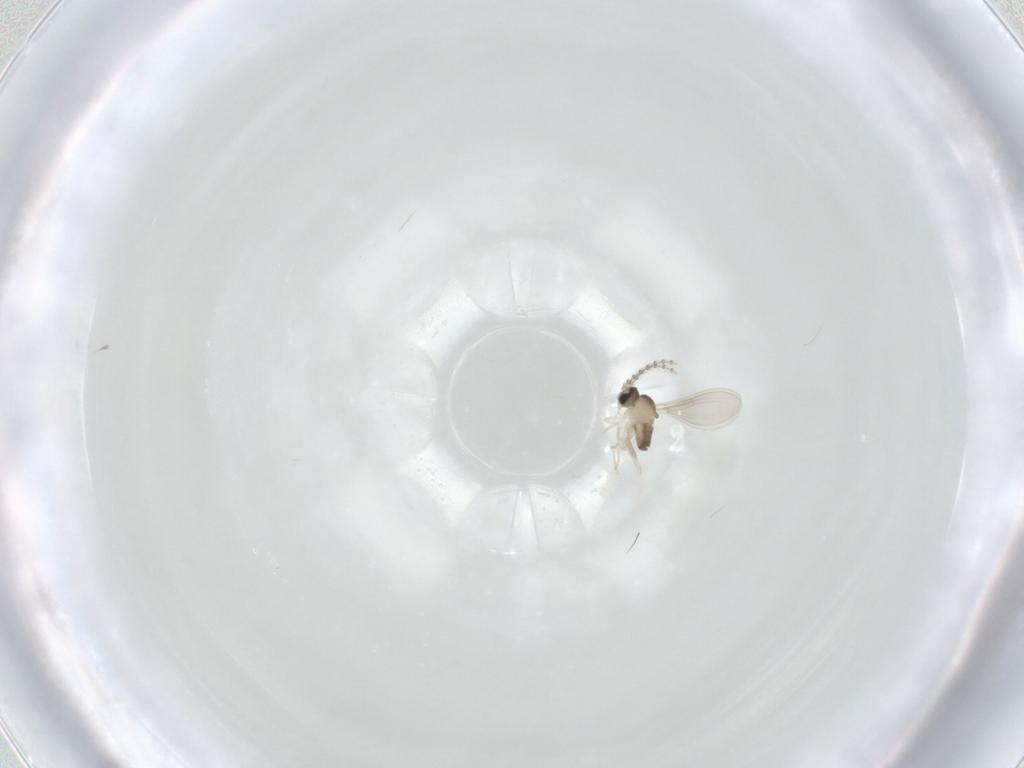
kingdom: Animalia
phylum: Arthropoda
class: Insecta
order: Diptera
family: Cecidomyiidae
